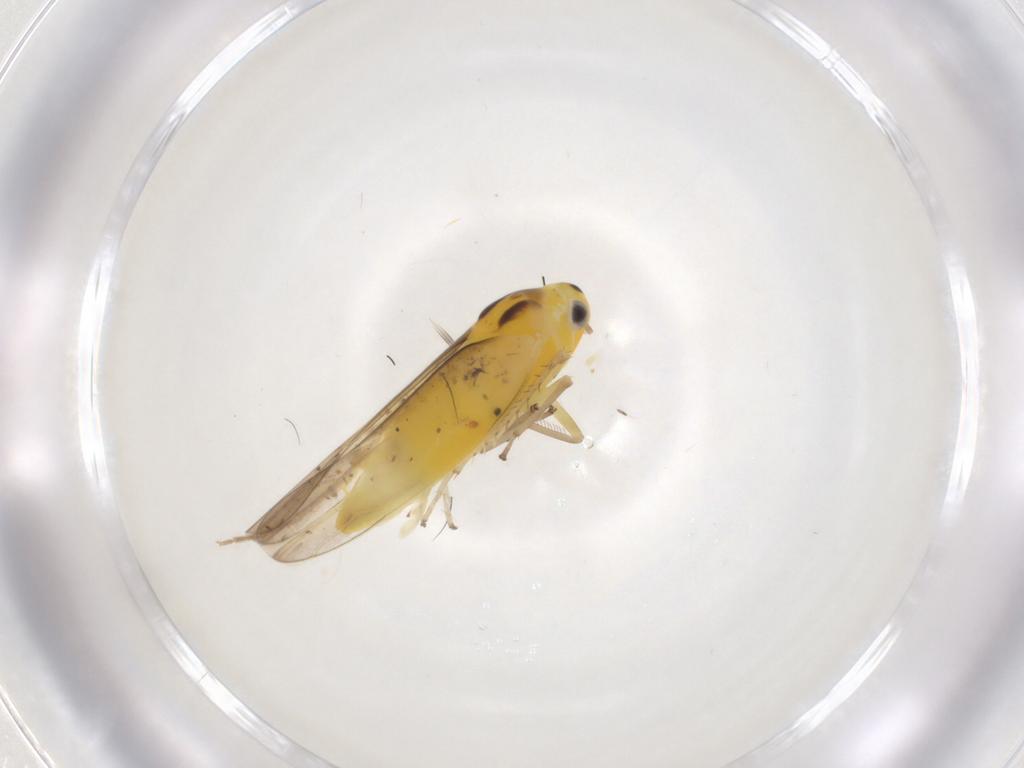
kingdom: Animalia
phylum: Arthropoda
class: Insecta
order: Hemiptera
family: Cicadellidae
